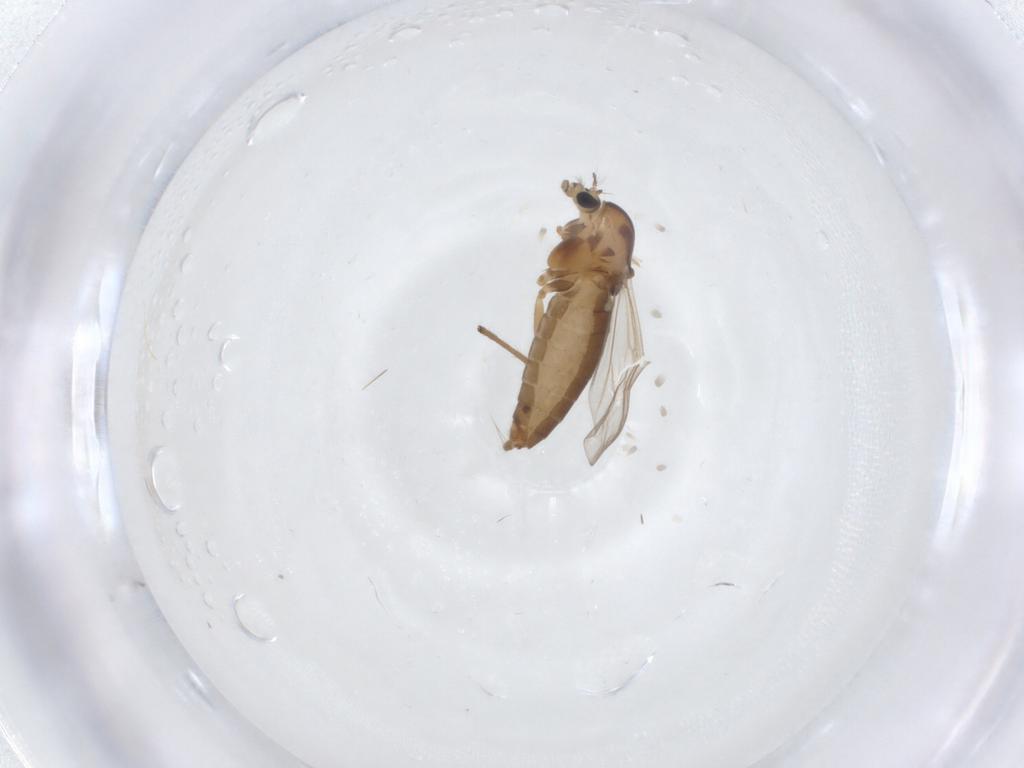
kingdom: Animalia
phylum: Arthropoda
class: Insecta
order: Diptera
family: Chironomidae
